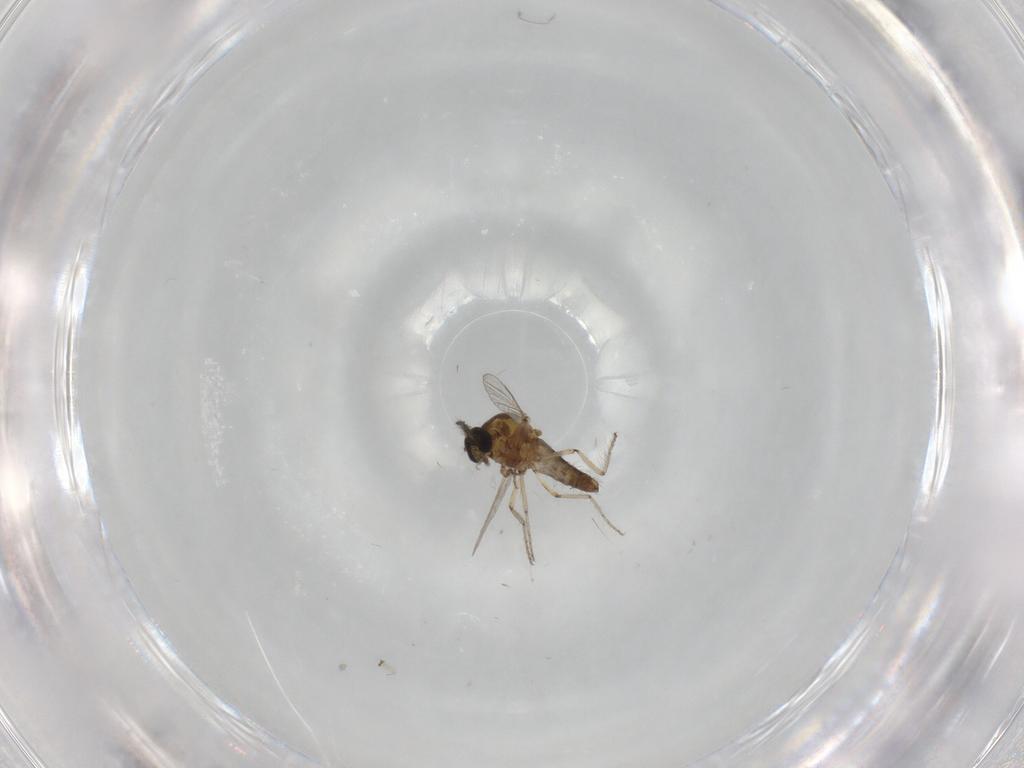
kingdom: Animalia
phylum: Arthropoda
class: Insecta
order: Diptera
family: Ceratopogonidae
